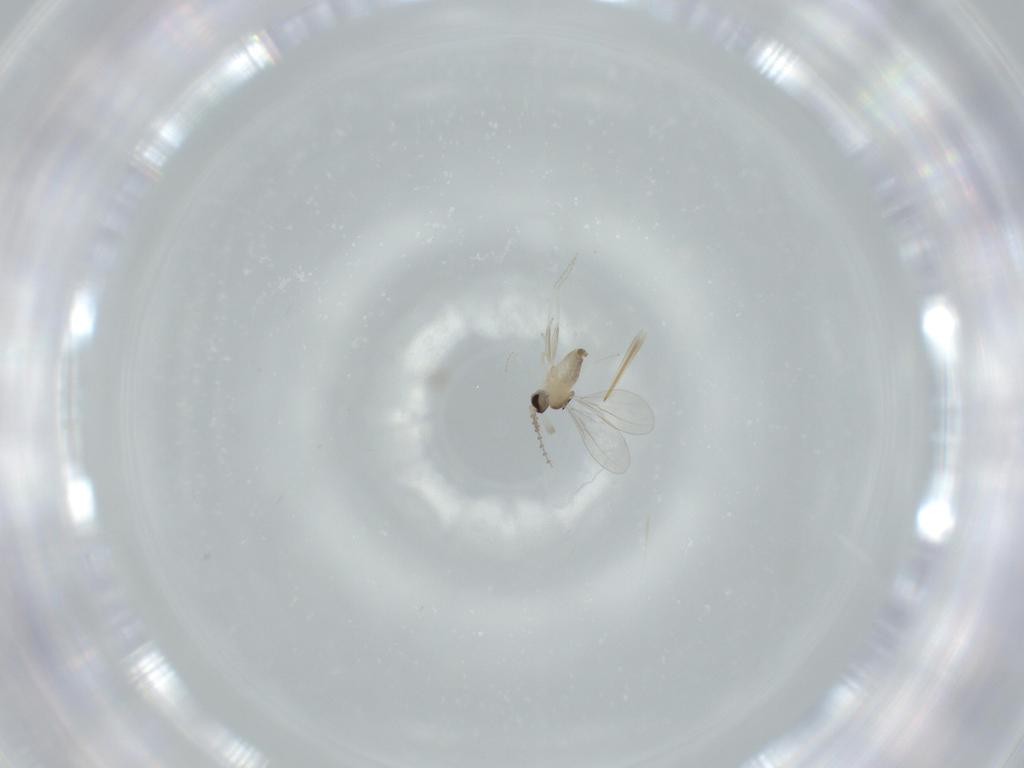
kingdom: Animalia
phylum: Arthropoda
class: Insecta
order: Diptera
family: Cecidomyiidae
